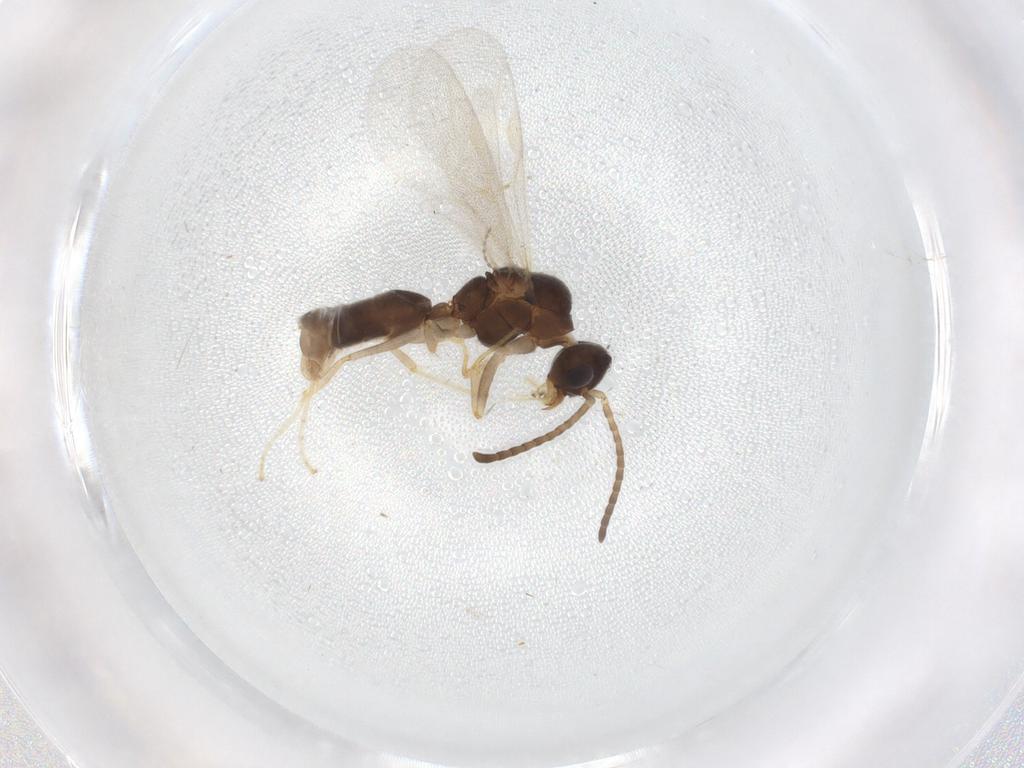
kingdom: Animalia
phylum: Arthropoda
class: Insecta
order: Hymenoptera
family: Formicidae
